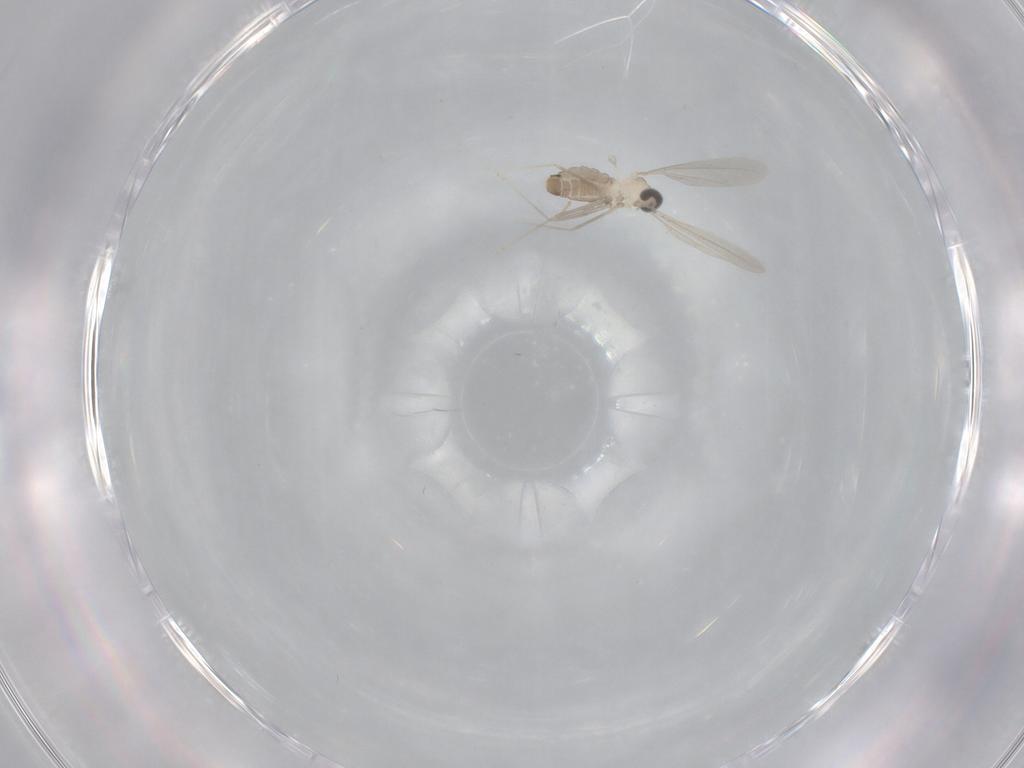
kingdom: Animalia
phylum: Arthropoda
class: Insecta
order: Diptera
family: Cecidomyiidae
